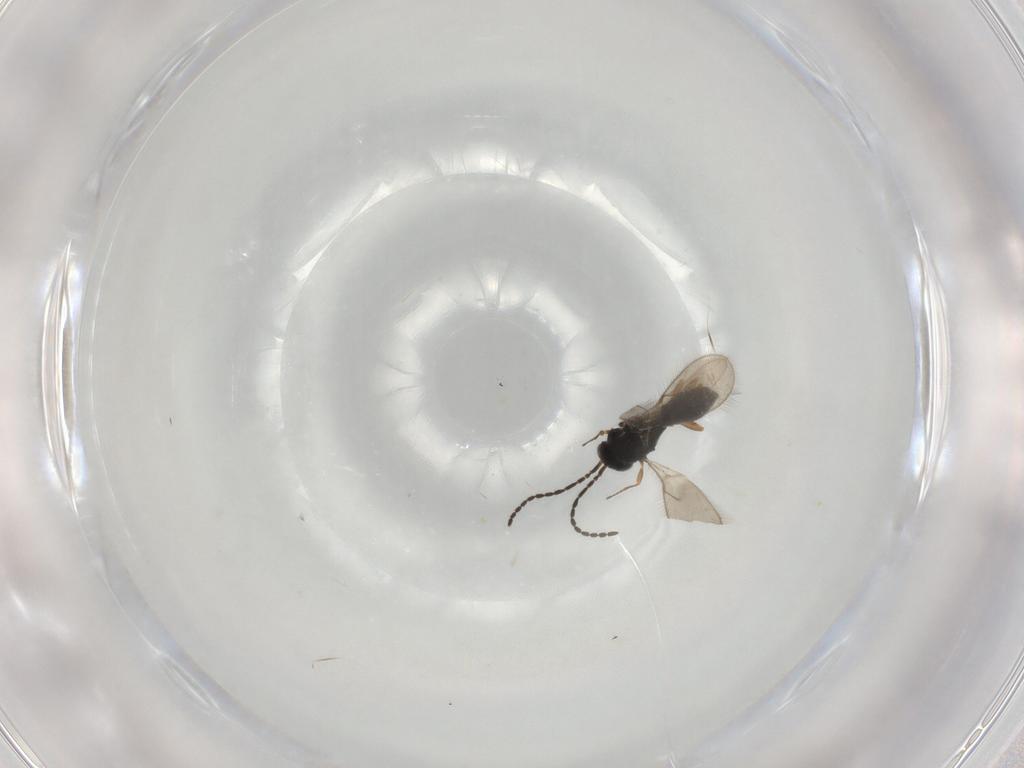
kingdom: Animalia
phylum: Arthropoda
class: Insecta
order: Hymenoptera
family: Scelionidae
